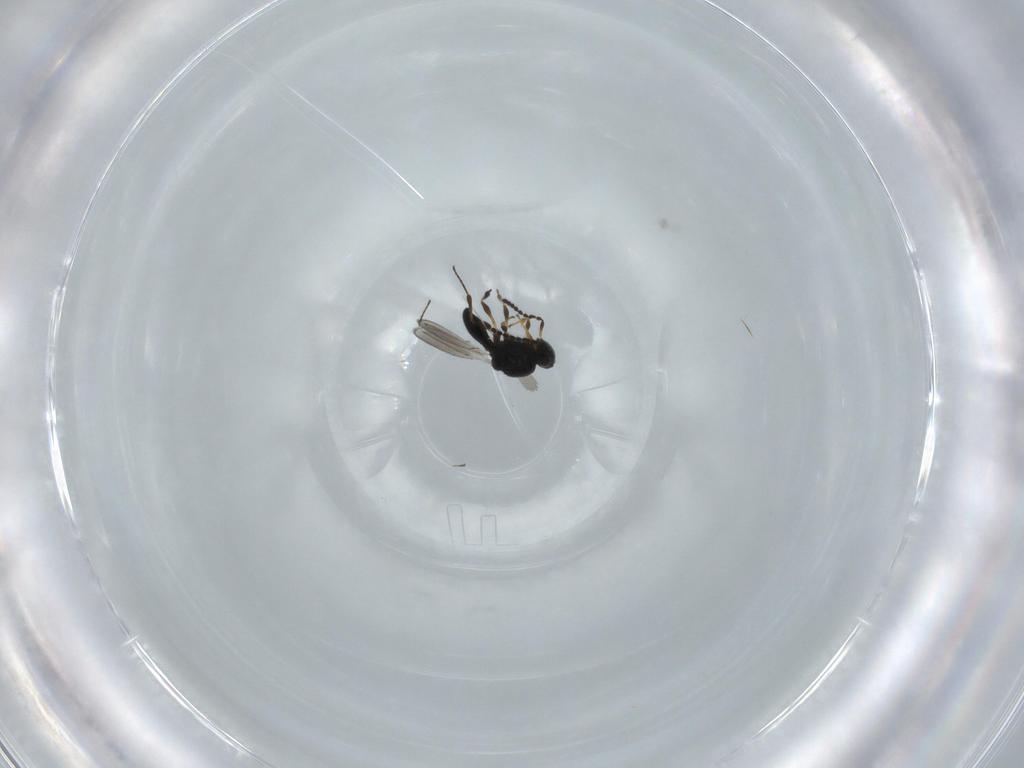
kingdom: Animalia
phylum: Arthropoda
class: Insecta
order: Hymenoptera
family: Platygastridae
